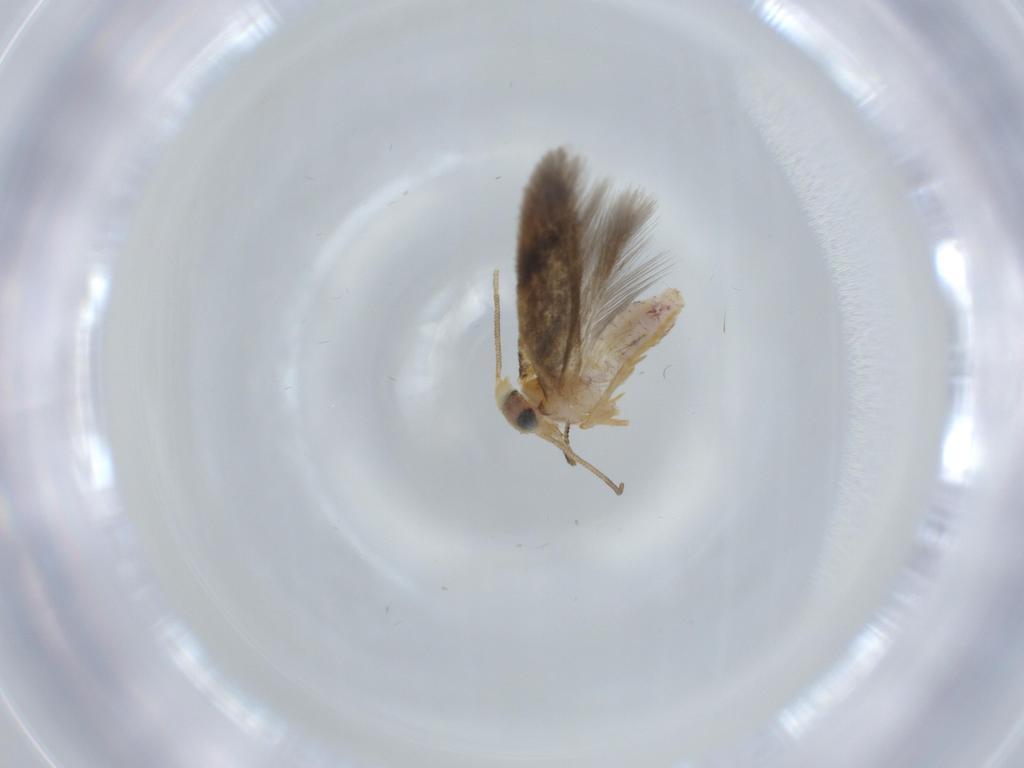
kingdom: Animalia
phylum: Arthropoda
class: Insecta
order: Lepidoptera
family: Nepticulidae
